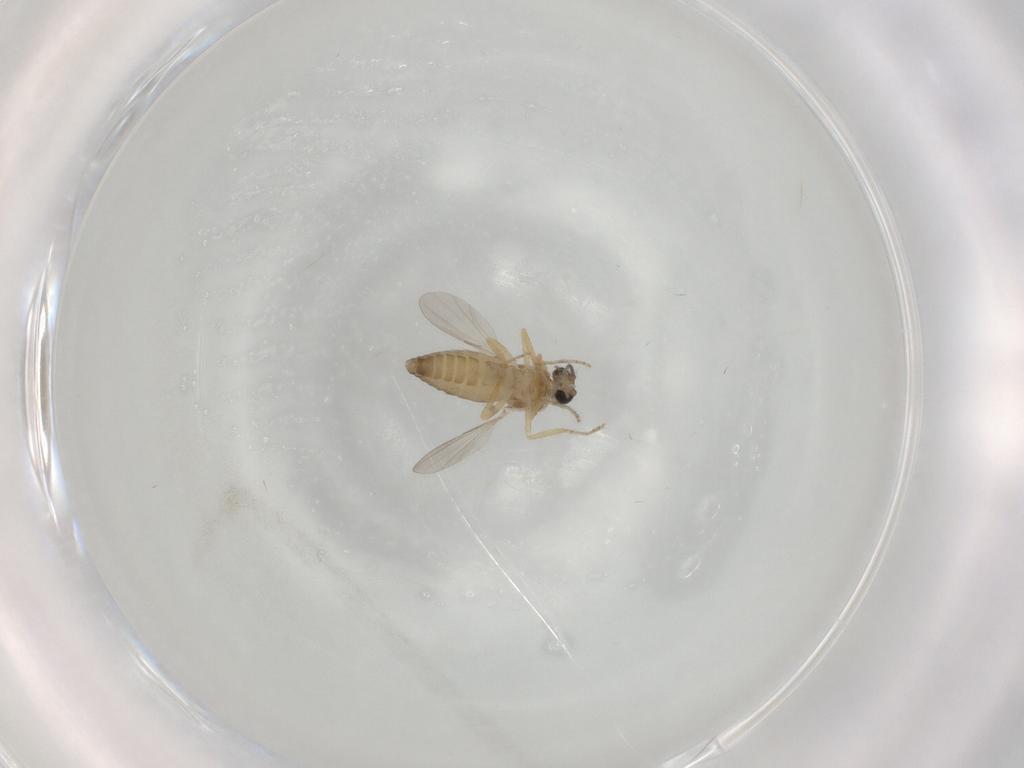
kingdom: Animalia
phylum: Arthropoda
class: Insecta
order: Diptera
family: Ceratopogonidae
